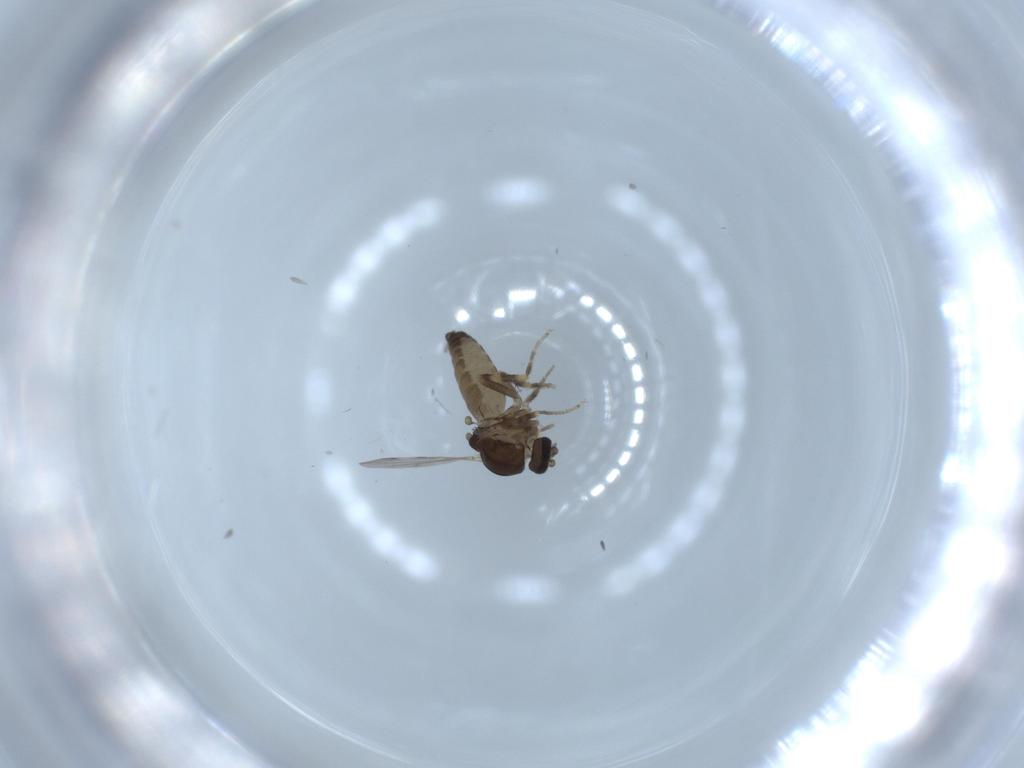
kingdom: Animalia
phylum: Arthropoda
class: Insecta
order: Diptera
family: Ceratopogonidae
